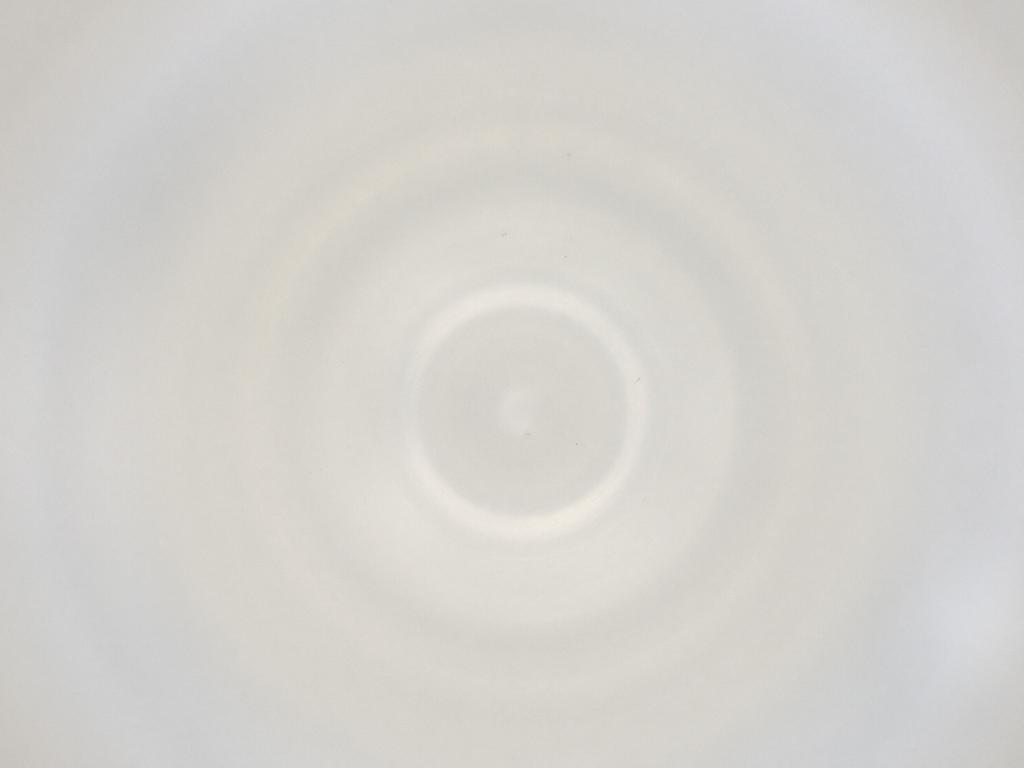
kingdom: Animalia
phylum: Arthropoda
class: Insecta
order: Diptera
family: Cecidomyiidae
